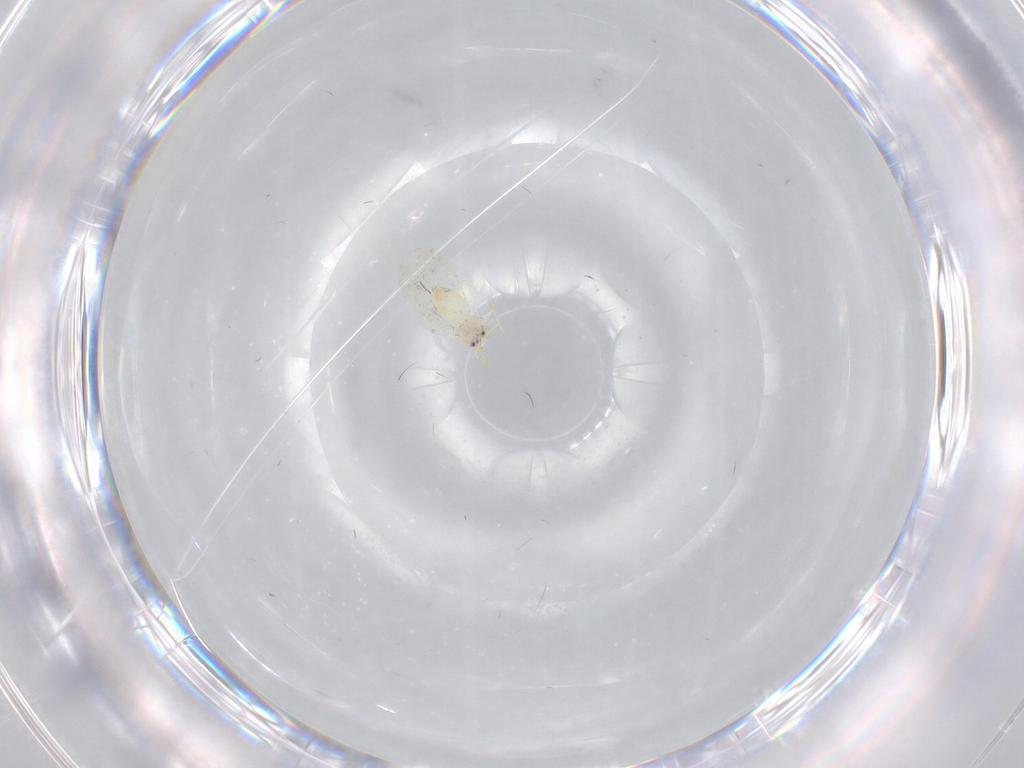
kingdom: Animalia
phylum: Arthropoda
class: Insecta
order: Hemiptera
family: Aleyrodidae
